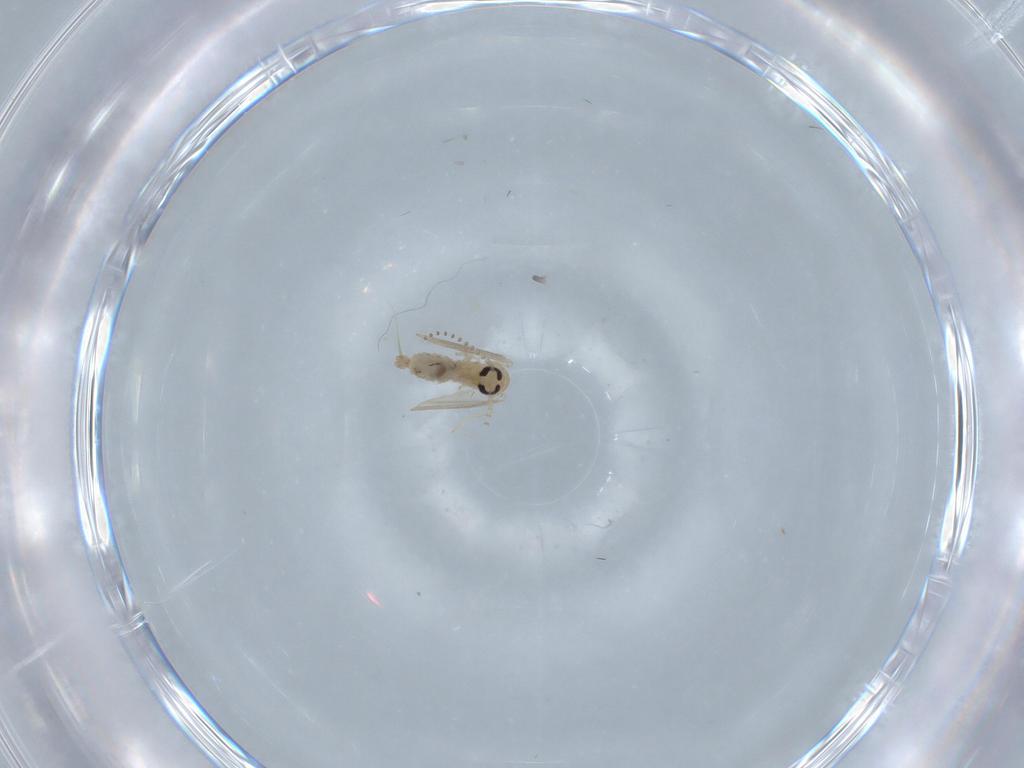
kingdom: Animalia
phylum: Arthropoda
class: Insecta
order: Diptera
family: Psychodidae
